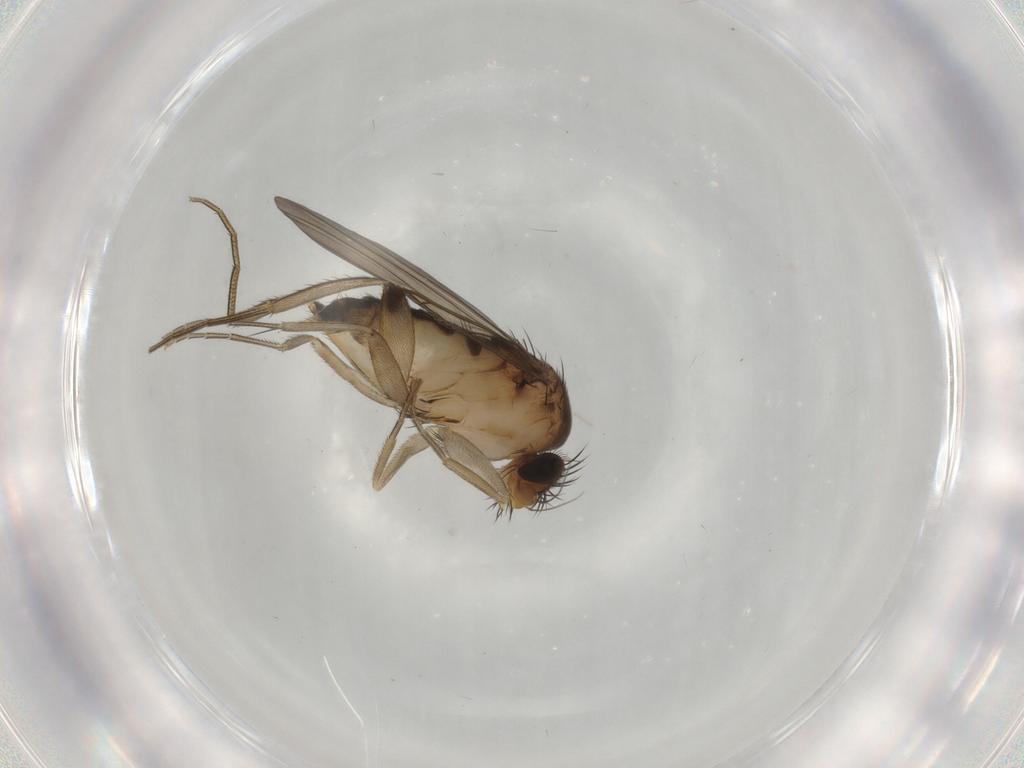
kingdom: Animalia
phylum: Arthropoda
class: Insecta
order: Diptera
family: Phoridae
